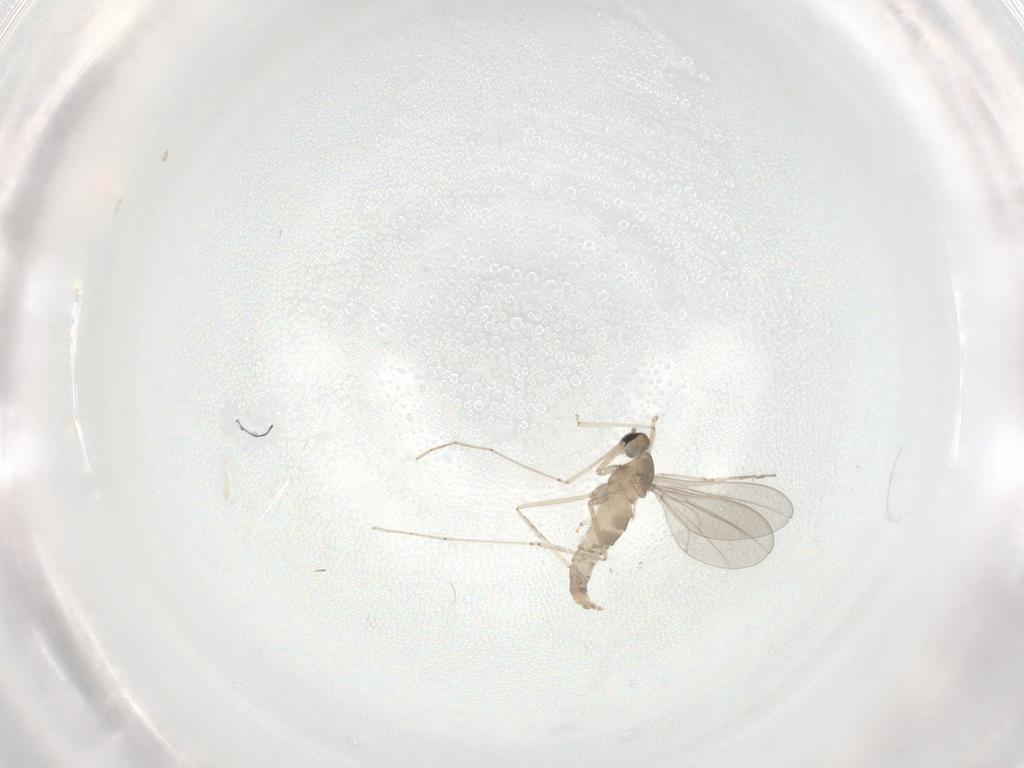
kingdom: Animalia
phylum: Arthropoda
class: Insecta
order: Diptera
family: Cecidomyiidae
